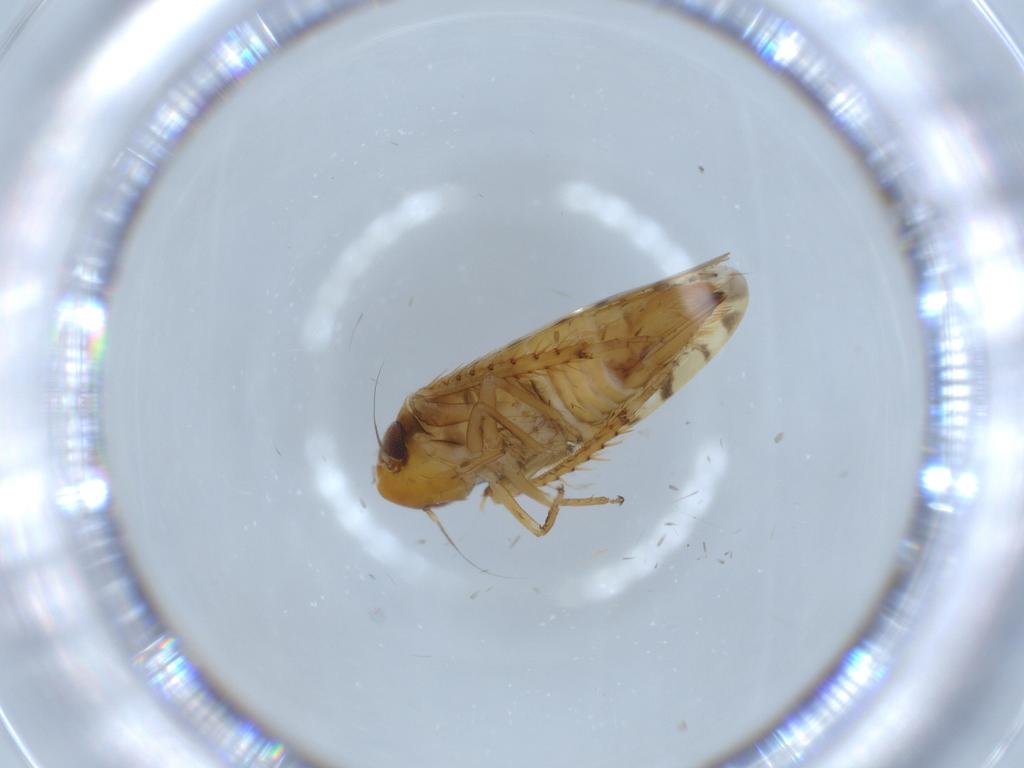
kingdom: Animalia
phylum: Arthropoda
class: Insecta
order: Hemiptera
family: Cicadellidae
